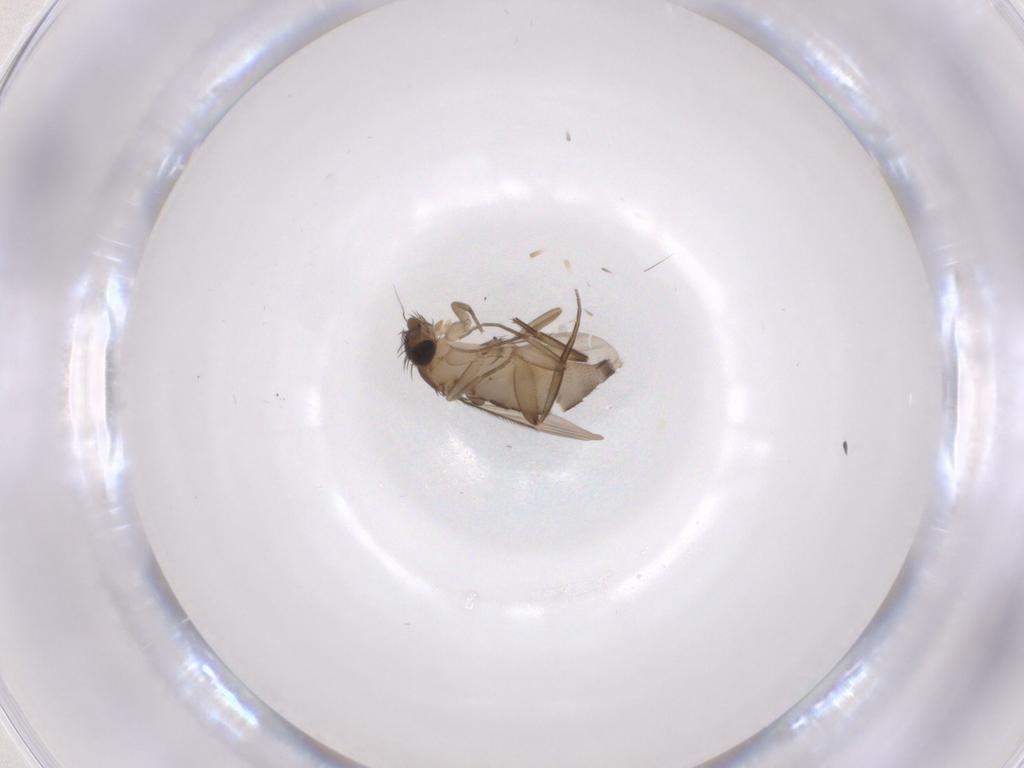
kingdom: Animalia
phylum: Arthropoda
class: Insecta
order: Diptera
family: Phoridae
